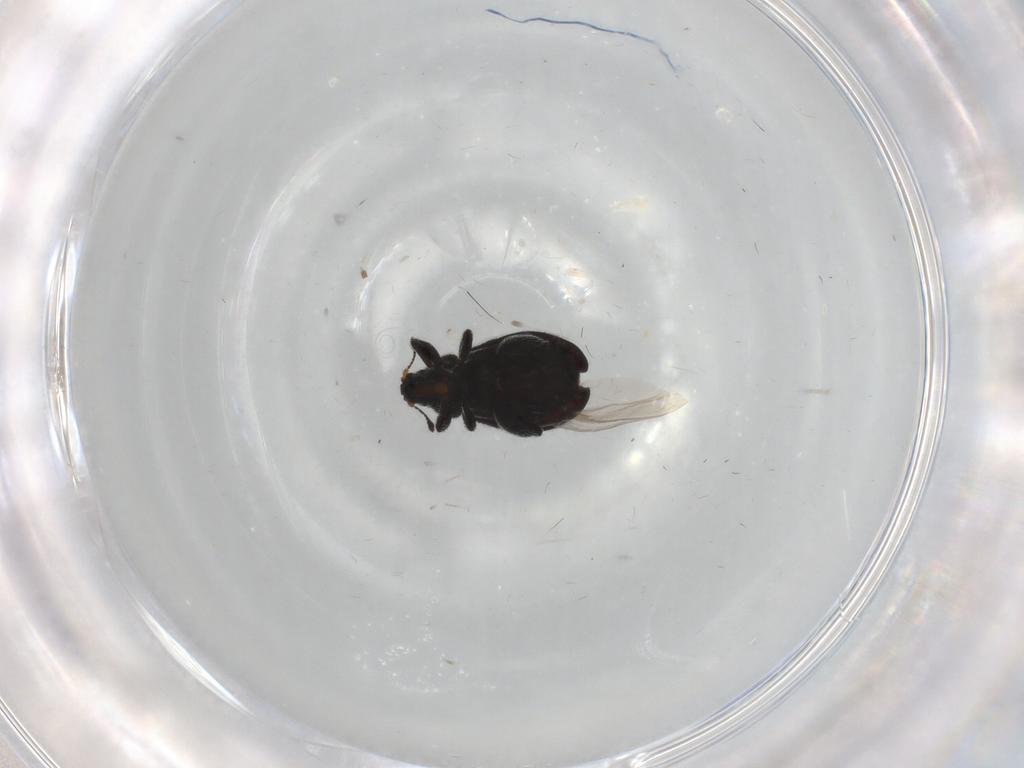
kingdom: Animalia
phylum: Arthropoda
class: Insecta
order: Coleoptera
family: Curculionidae
